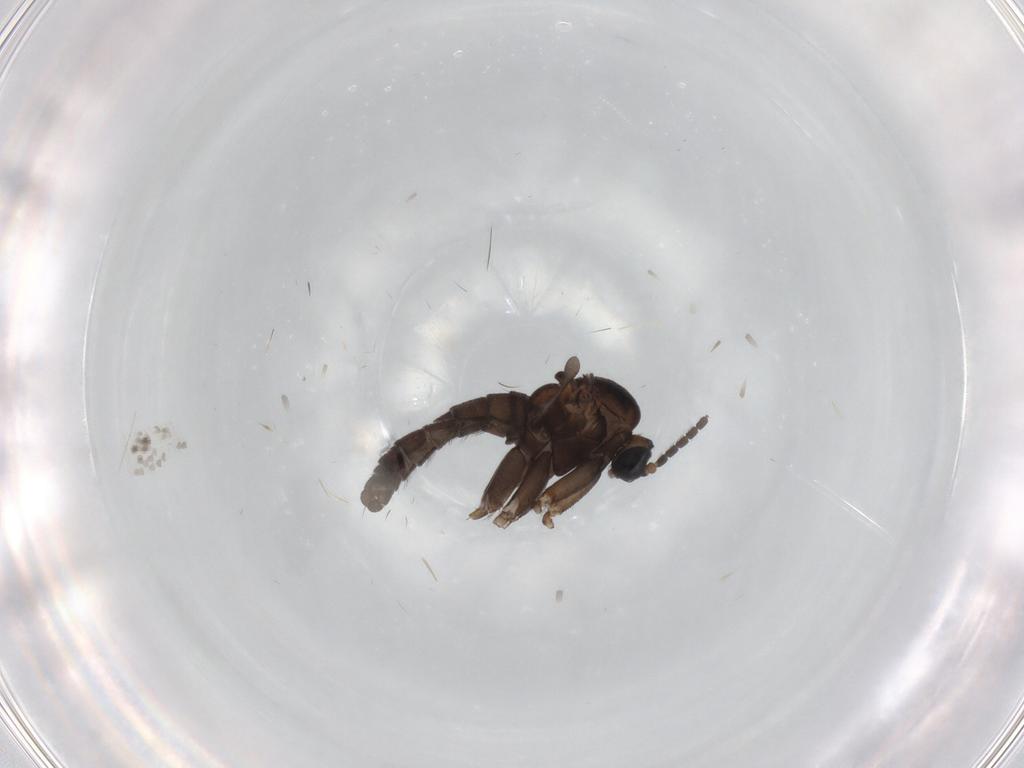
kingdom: Animalia
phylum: Arthropoda
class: Insecta
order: Diptera
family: Sciaridae
